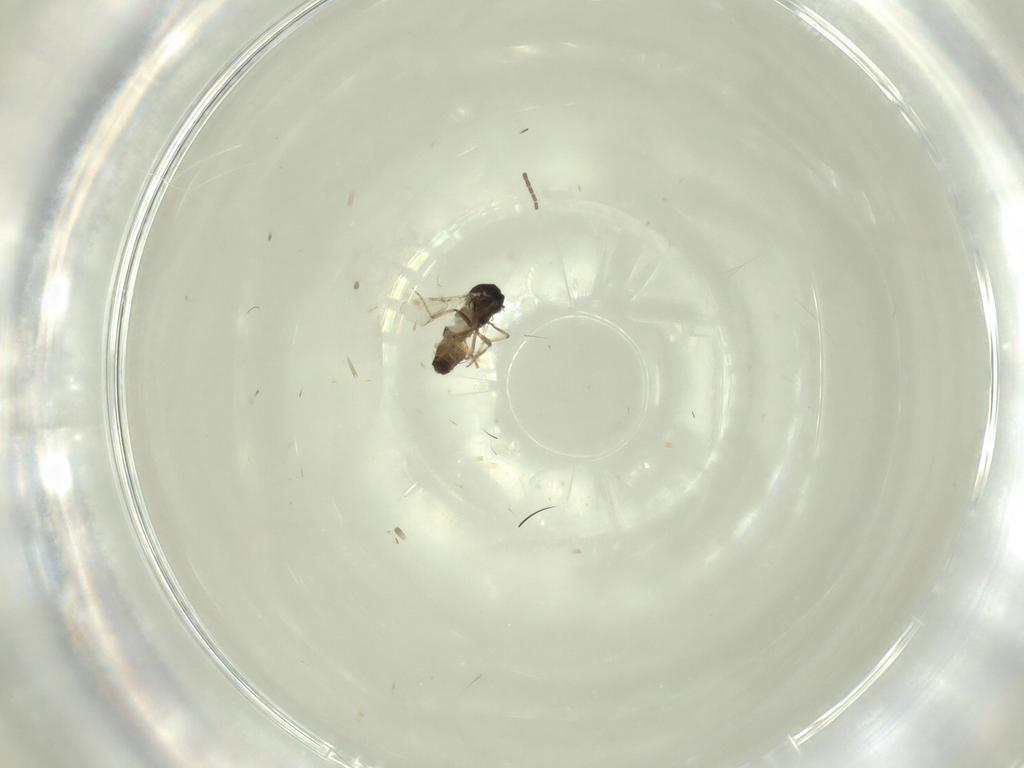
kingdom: Animalia
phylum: Arthropoda
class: Insecta
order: Diptera
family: Ceratopogonidae
